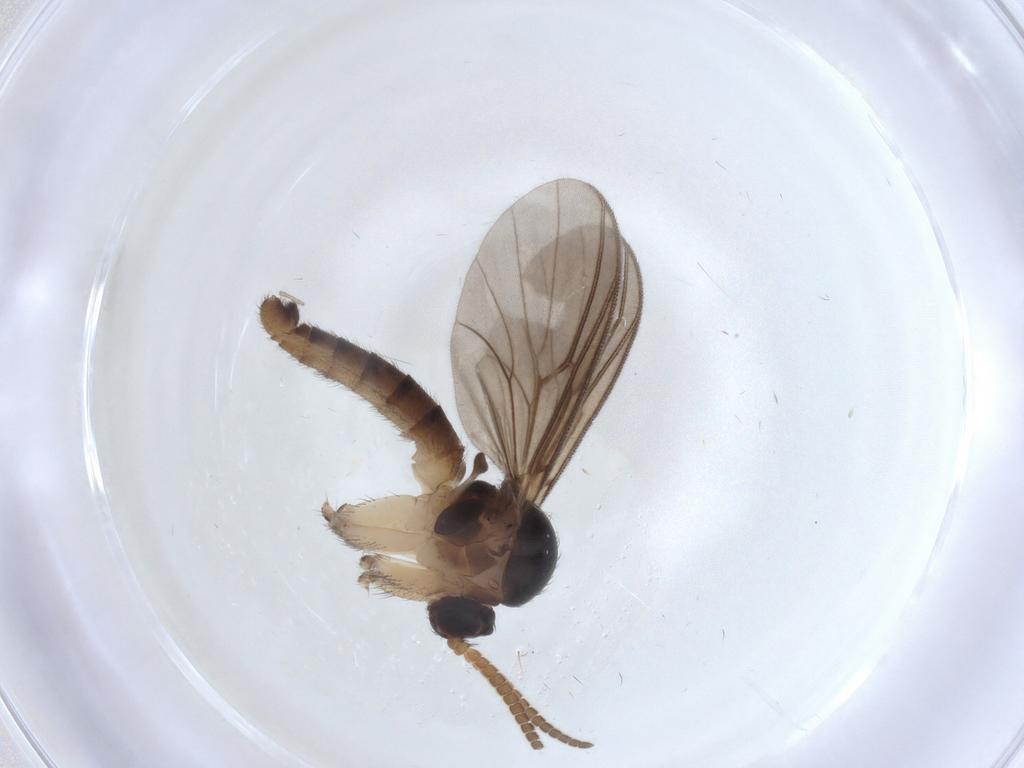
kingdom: Animalia
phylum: Arthropoda
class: Insecta
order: Diptera
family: Mycetophilidae
